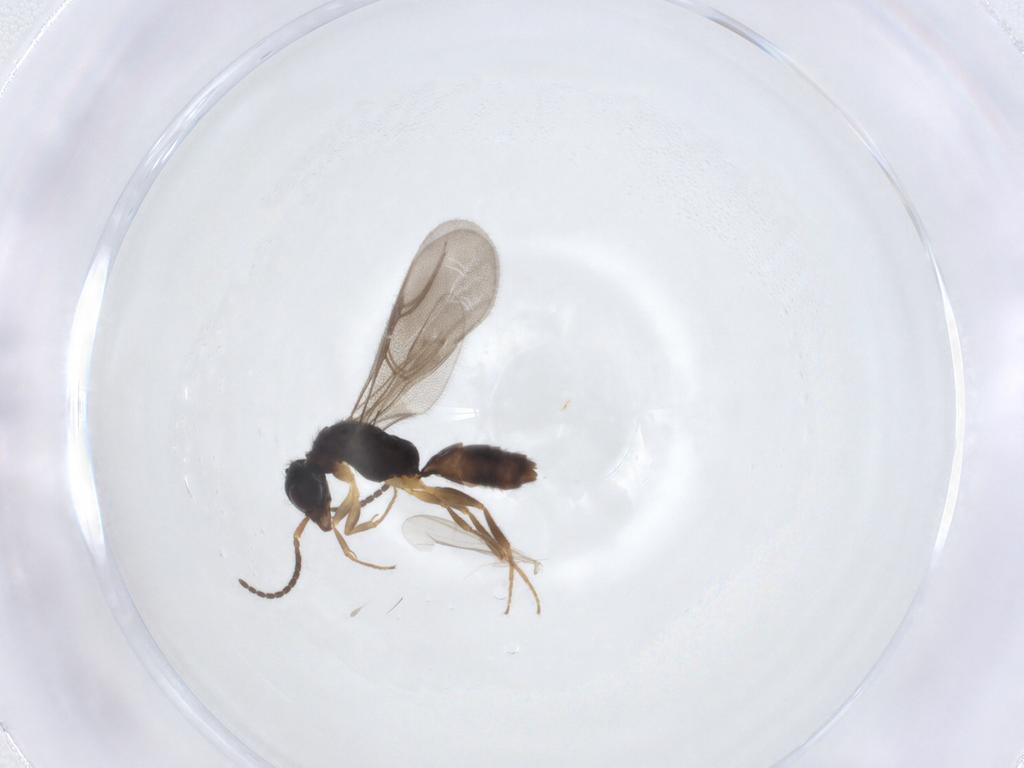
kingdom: Animalia
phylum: Arthropoda
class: Insecta
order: Hymenoptera
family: Bethylidae
